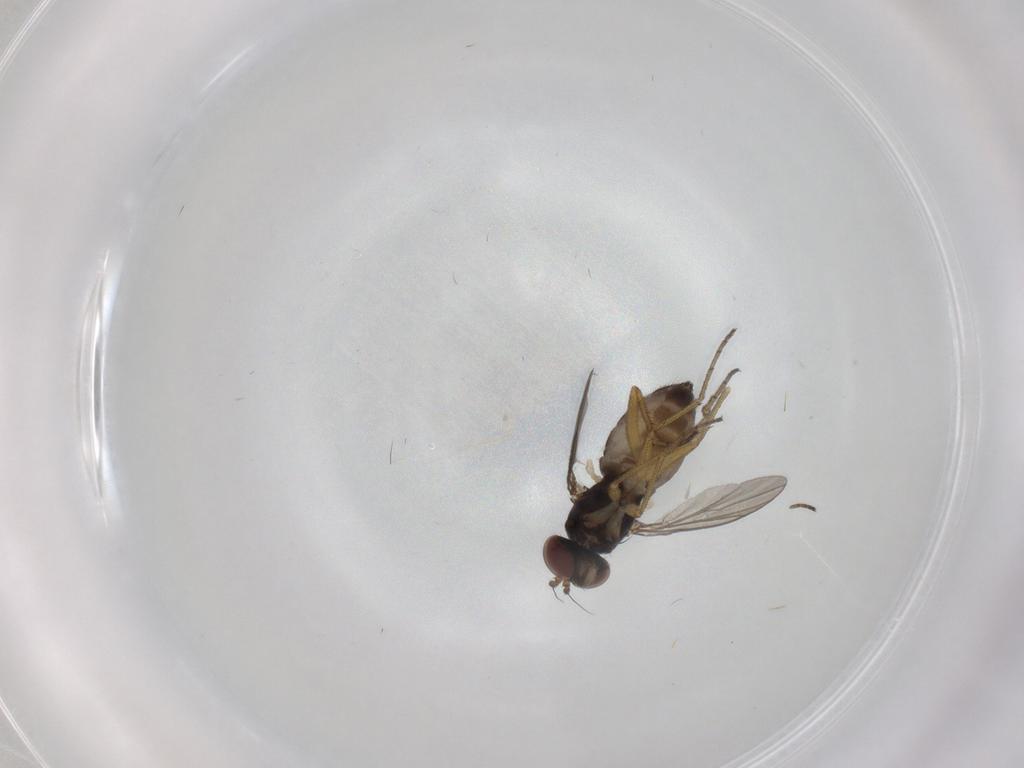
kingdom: Animalia
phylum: Arthropoda
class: Insecta
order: Diptera
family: Dolichopodidae
